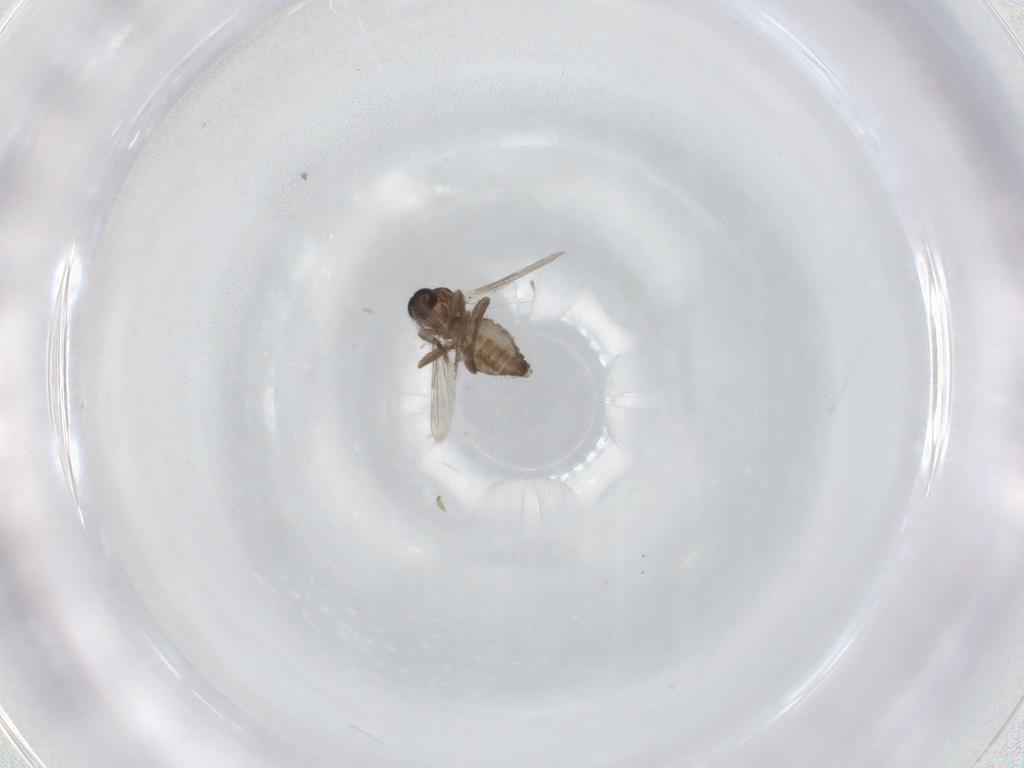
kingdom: Animalia
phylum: Arthropoda
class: Insecta
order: Diptera
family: Ceratopogonidae
